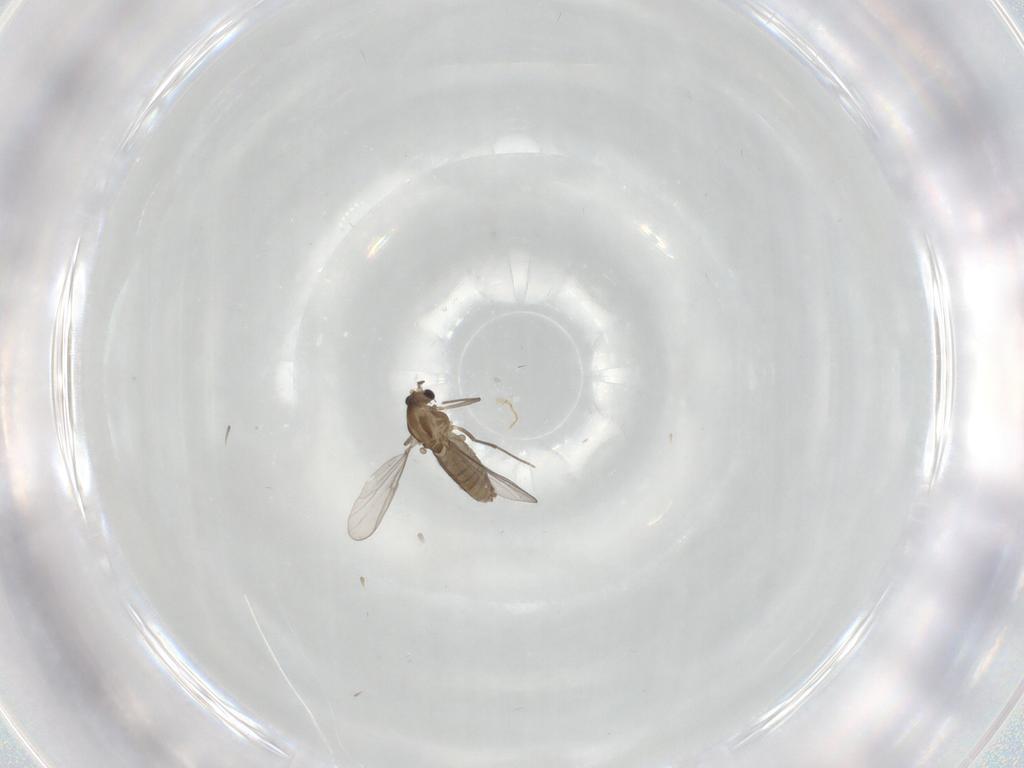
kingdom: Animalia
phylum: Arthropoda
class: Insecta
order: Diptera
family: Chironomidae
